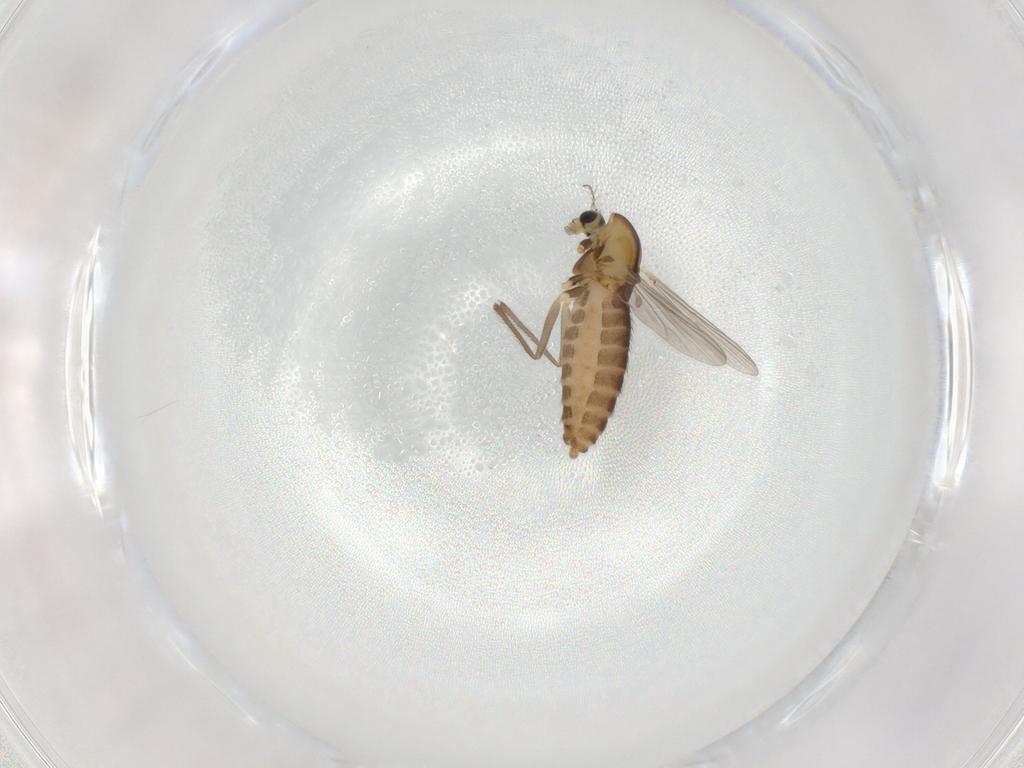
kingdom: Animalia
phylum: Arthropoda
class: Insecta
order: Diptera
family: Chironomidae
